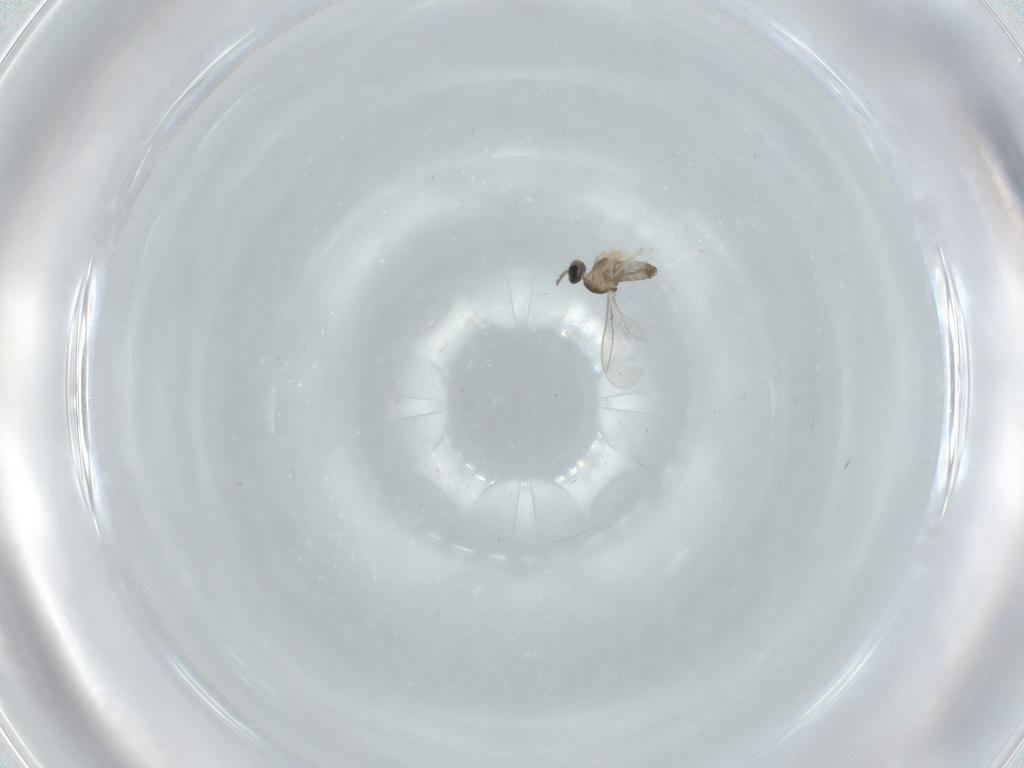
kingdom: Animalia
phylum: Arthropoda
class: Insecta
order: Diptera
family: Cecidomyiidae
